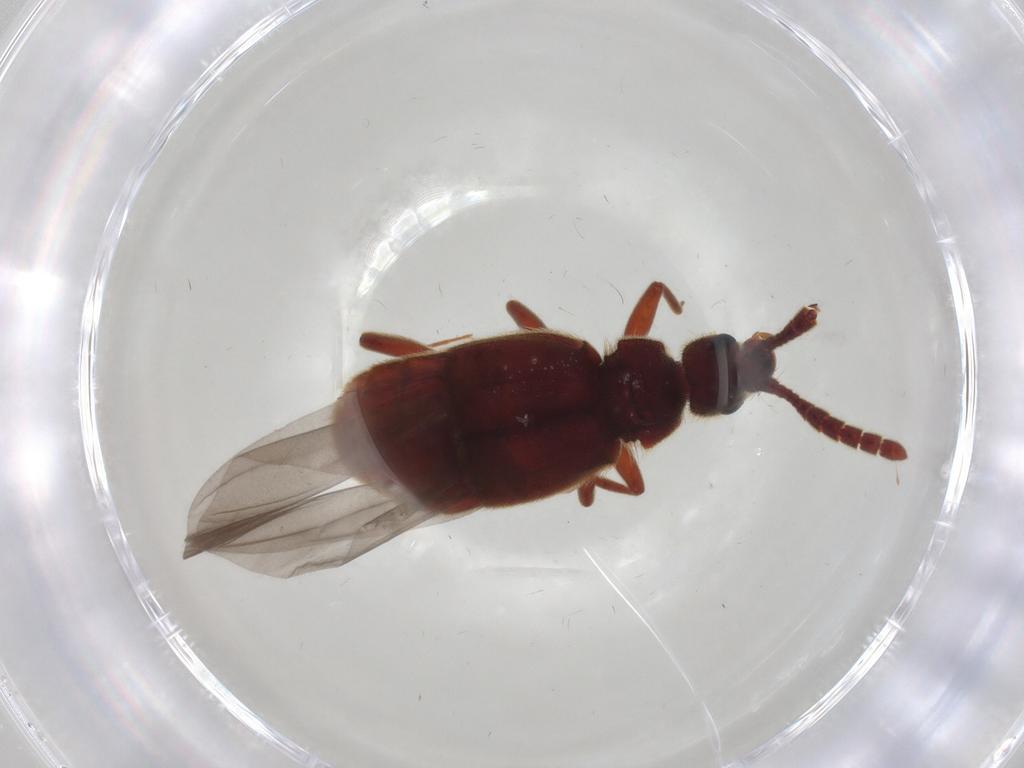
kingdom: Animalia
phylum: Arthropoda
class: Insecta
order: Coleoptera
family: Staphylinidae
